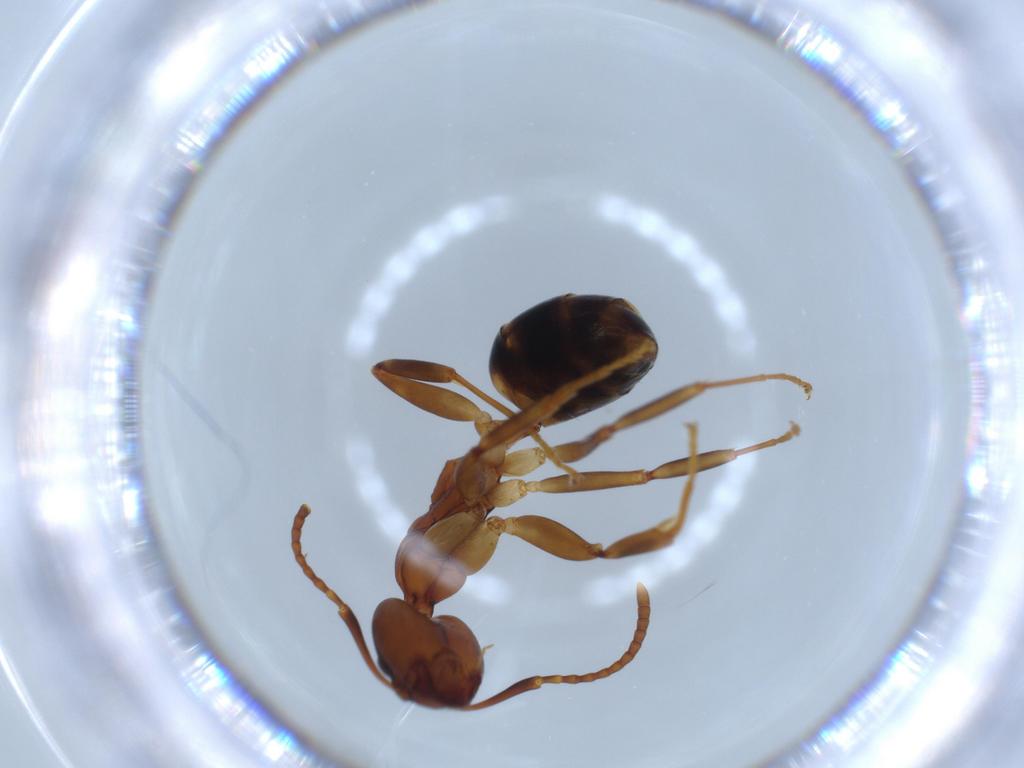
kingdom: Animalia
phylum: Arthropoda
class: Insecta
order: Hymenoptera
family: Formicidae
